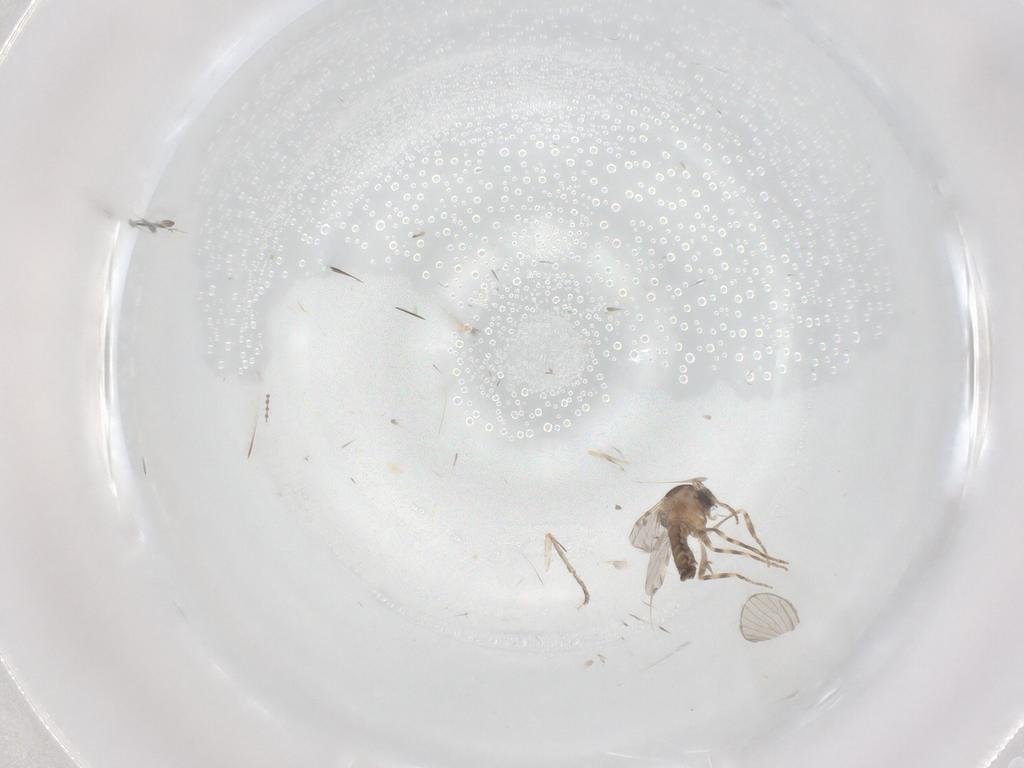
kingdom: Animalia
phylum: Arthropoda
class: Insecta
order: Diptera
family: Ceratopogonidae
